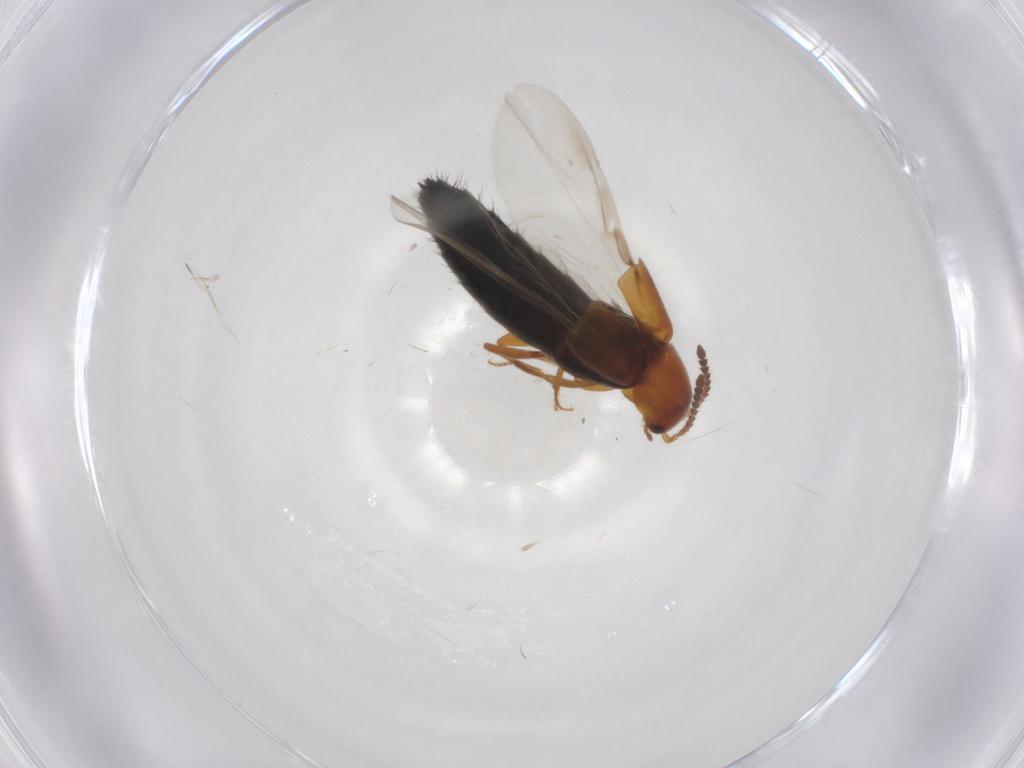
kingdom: Animalia
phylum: Arthropoda
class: Insecta
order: Coleoptera
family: Staphylinidae
